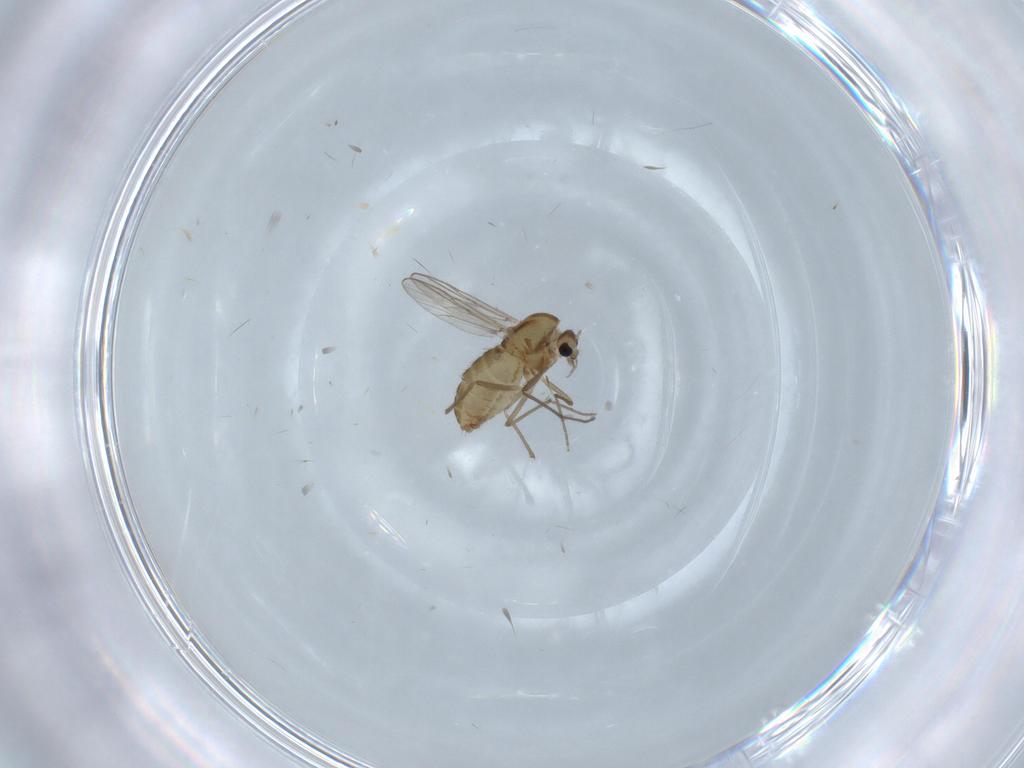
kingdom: Animalia
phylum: Arthropoda
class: Insecta
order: Diptera
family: Chironomidae
